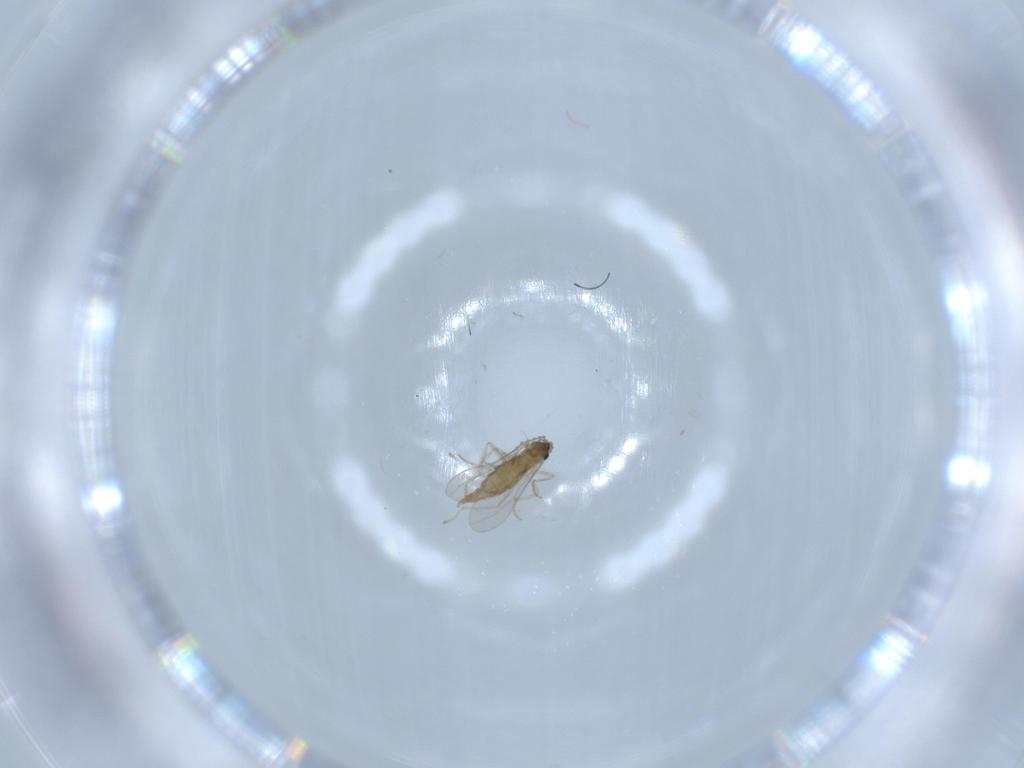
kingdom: Animalia
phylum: Arthropoda
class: Insecta
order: Diptera
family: Cecidomyiidae
